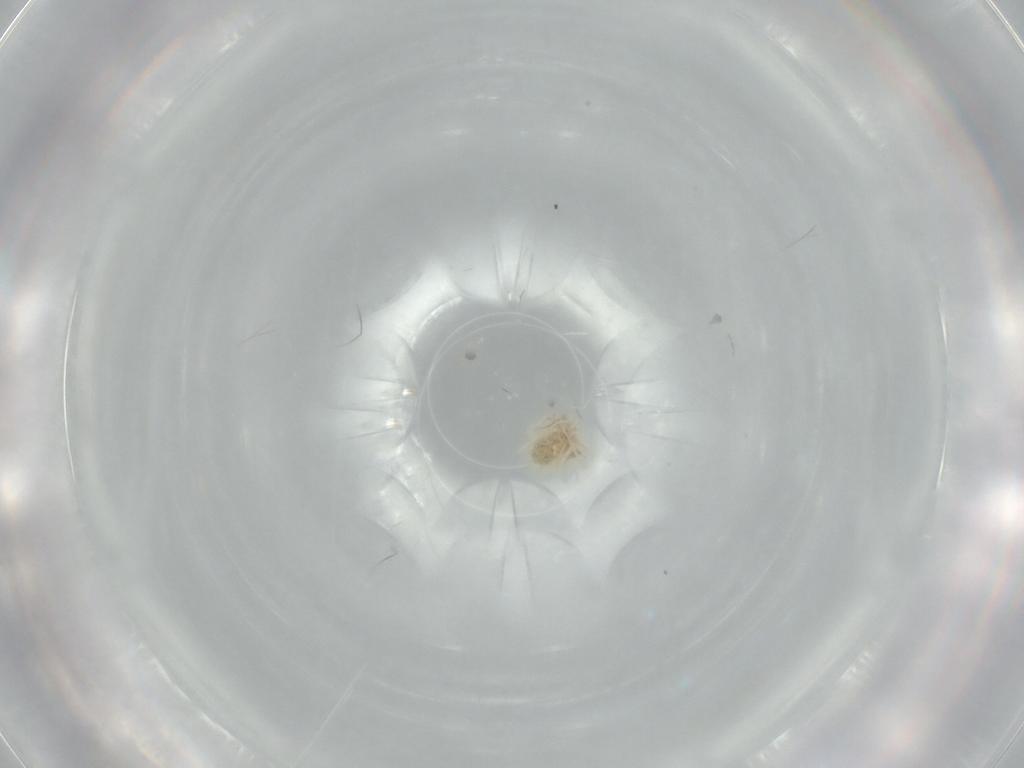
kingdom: Animalia
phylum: Arthropoda
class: Arachnida
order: Trombidiformes
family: Anystidae
